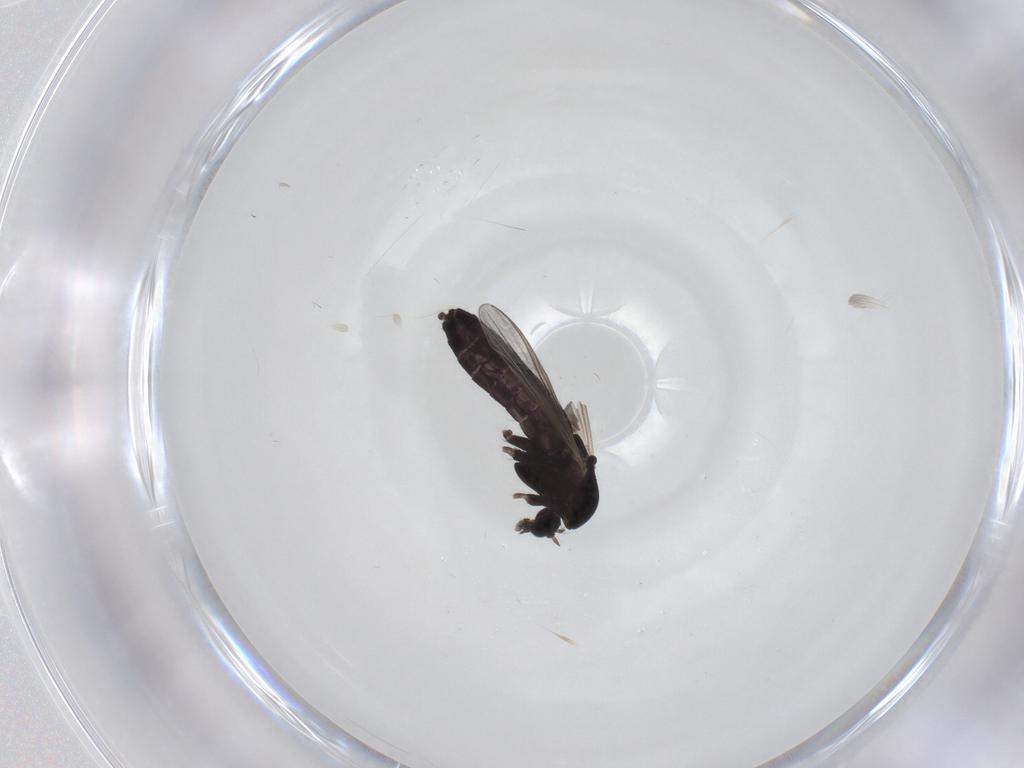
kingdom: Animalia
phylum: Arthropoda
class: Insecta
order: Diptera
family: Chironomidae
